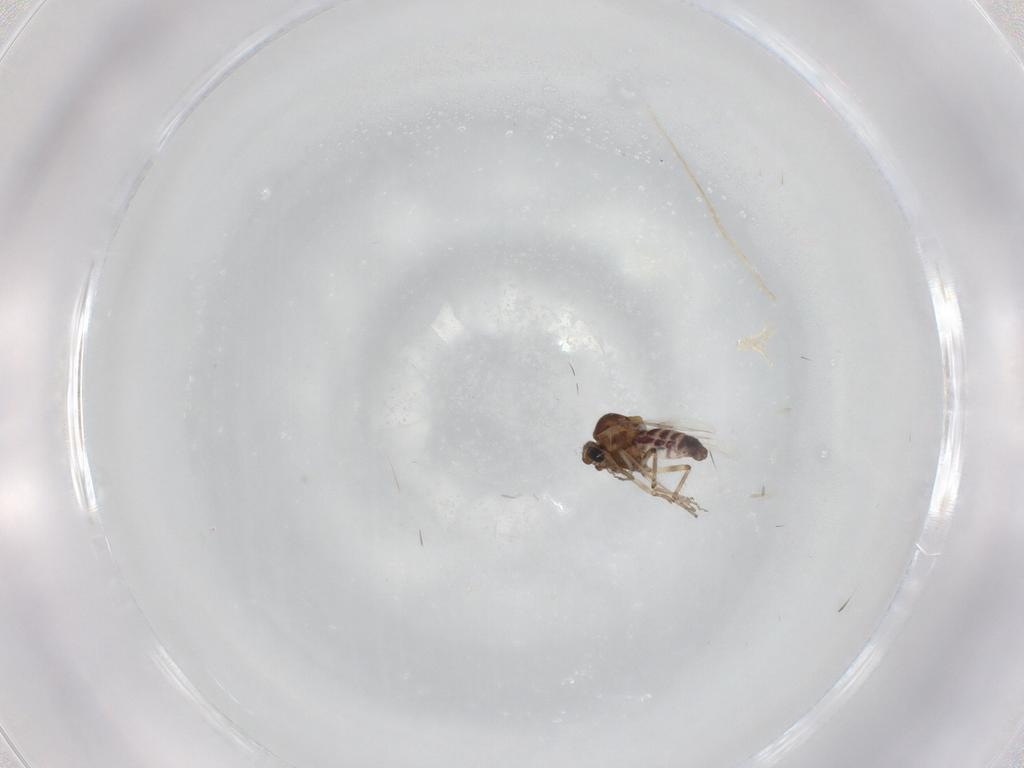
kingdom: Animalia
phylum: Arthropoda
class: Insecta
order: Diptera
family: Ceratopogonidae
